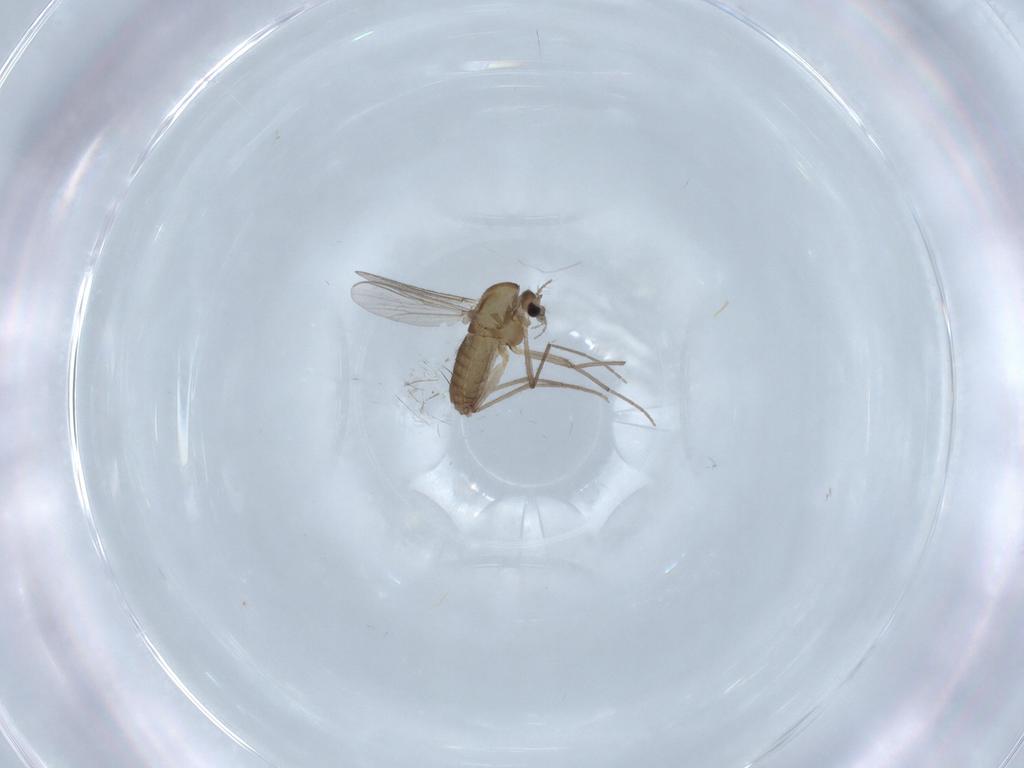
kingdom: Animalia
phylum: Arthropoda
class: Insecta
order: Diptera
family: Chironomidae
